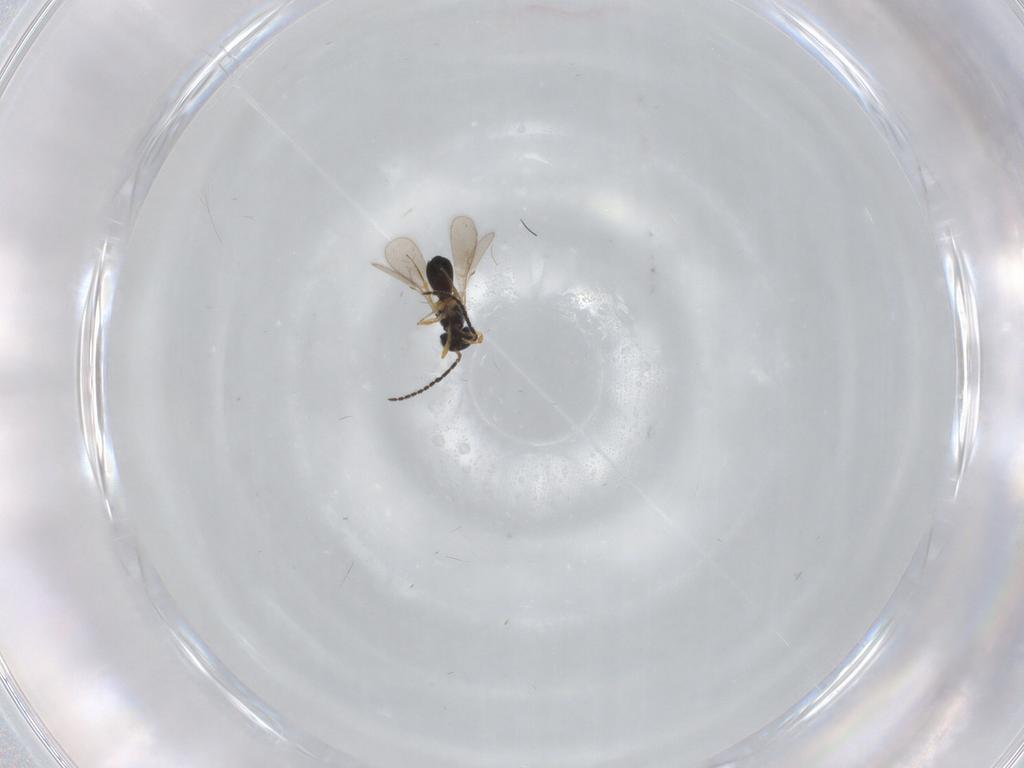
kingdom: Animalia
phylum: Arthropoda
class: Insecta
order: Hymenoptera
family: Scelionidae
